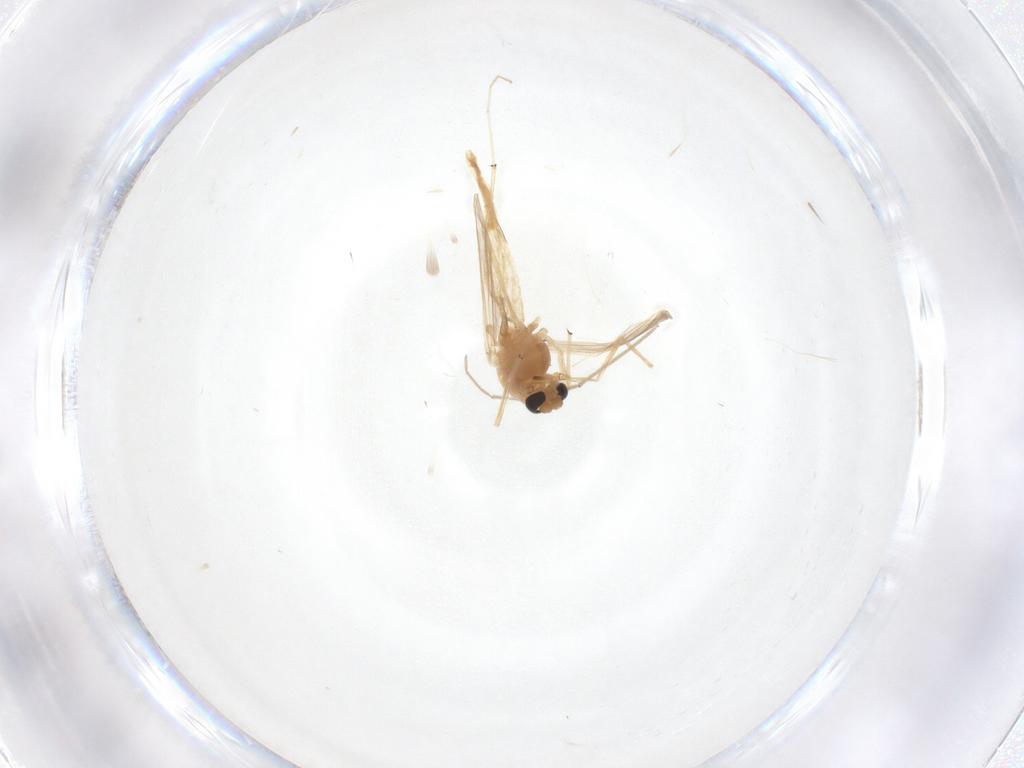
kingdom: Animalia
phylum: Arthropoda
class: Insecta
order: Diptera
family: Chironomidae
